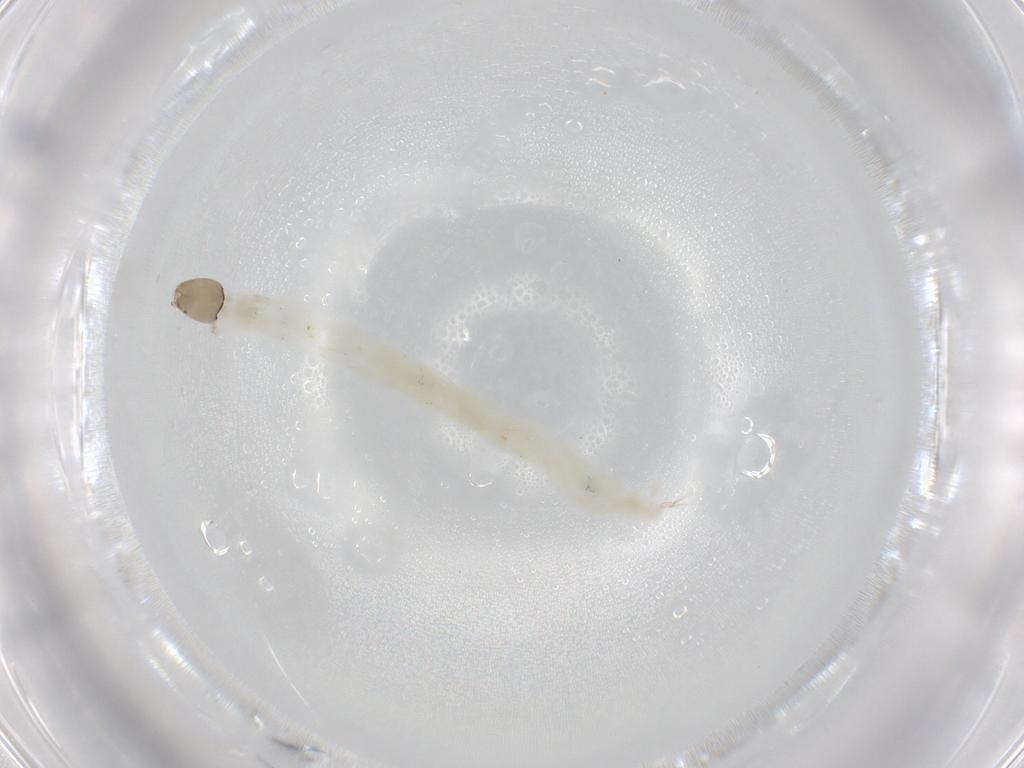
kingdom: Animalia
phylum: Arthropoda
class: Insecta
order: Diptera
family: Chironomidae
